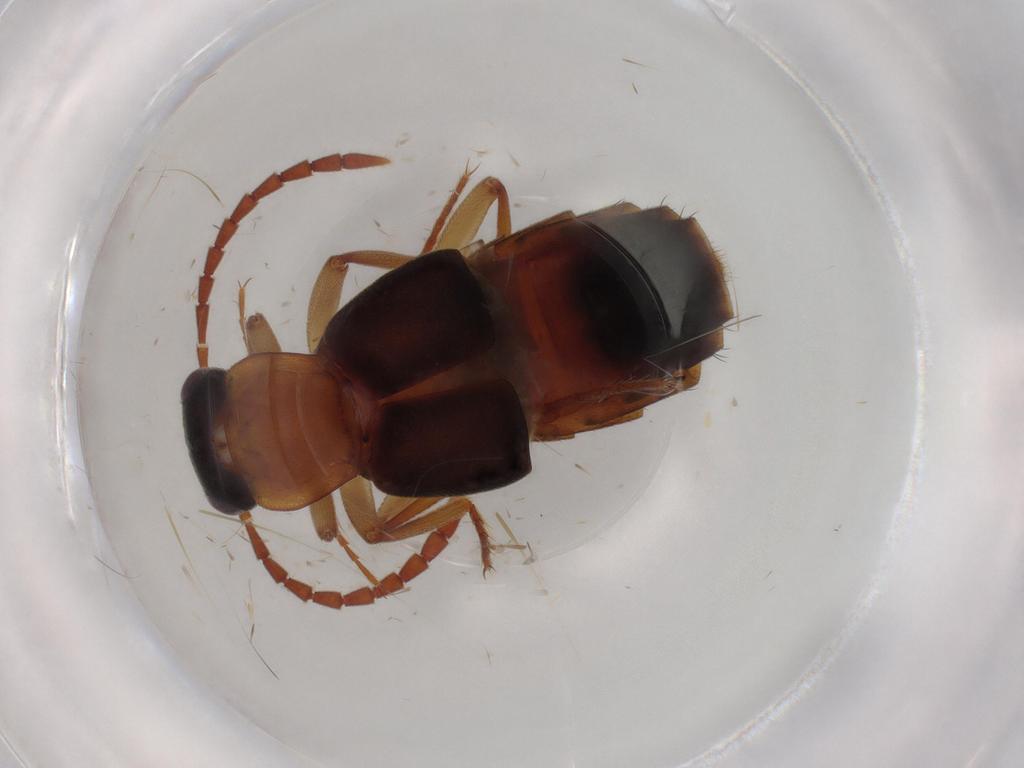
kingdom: Animalia
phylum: Arthropoda
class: Insecta
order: Coleoptera
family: Staphylinidae
